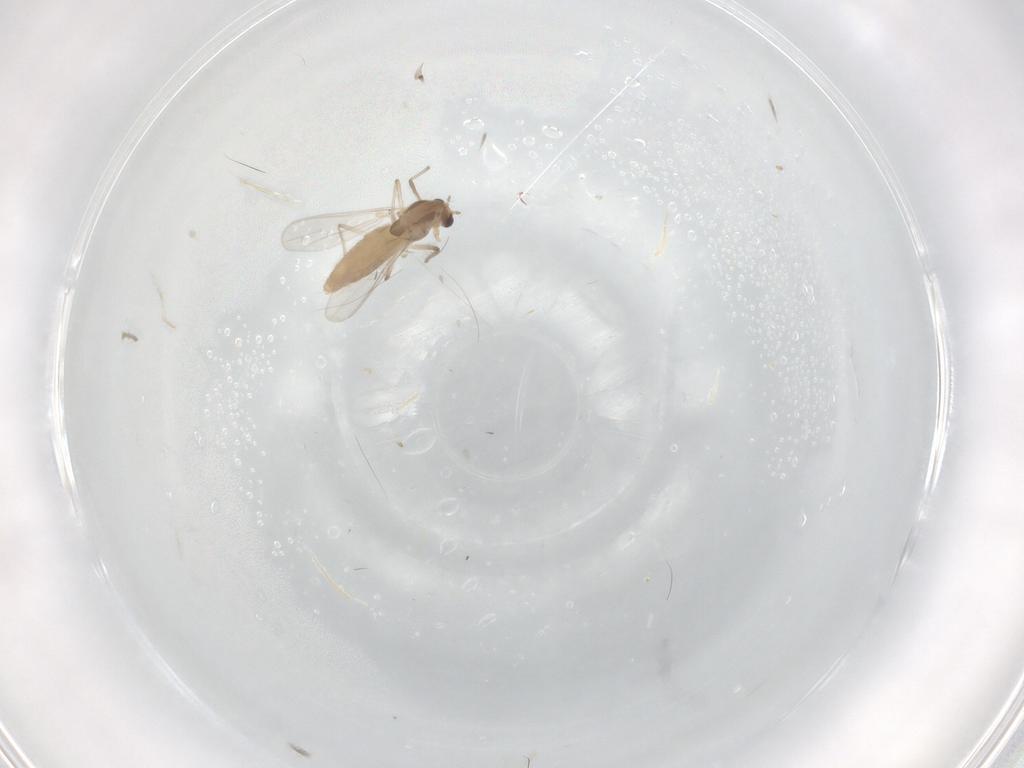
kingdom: Animalia
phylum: Arthropoda
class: Insecta
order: Diptera
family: Chironomidae
